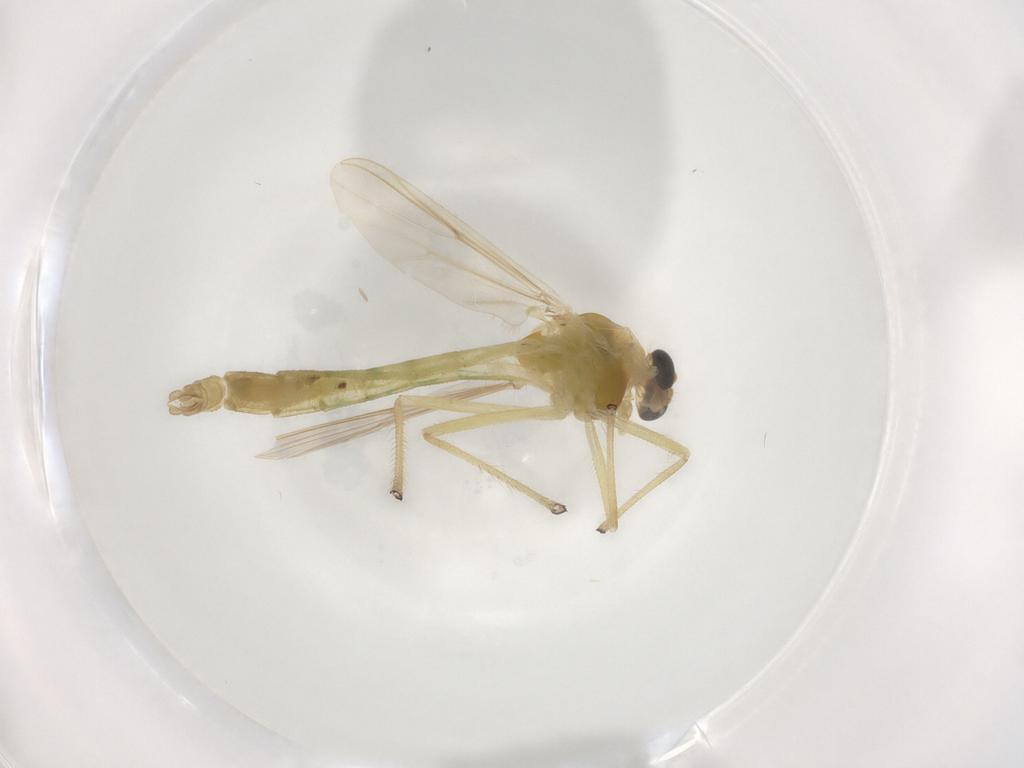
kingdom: Animalia
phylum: Arthropoda
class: Insecta
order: Diptera
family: Chironomidae
